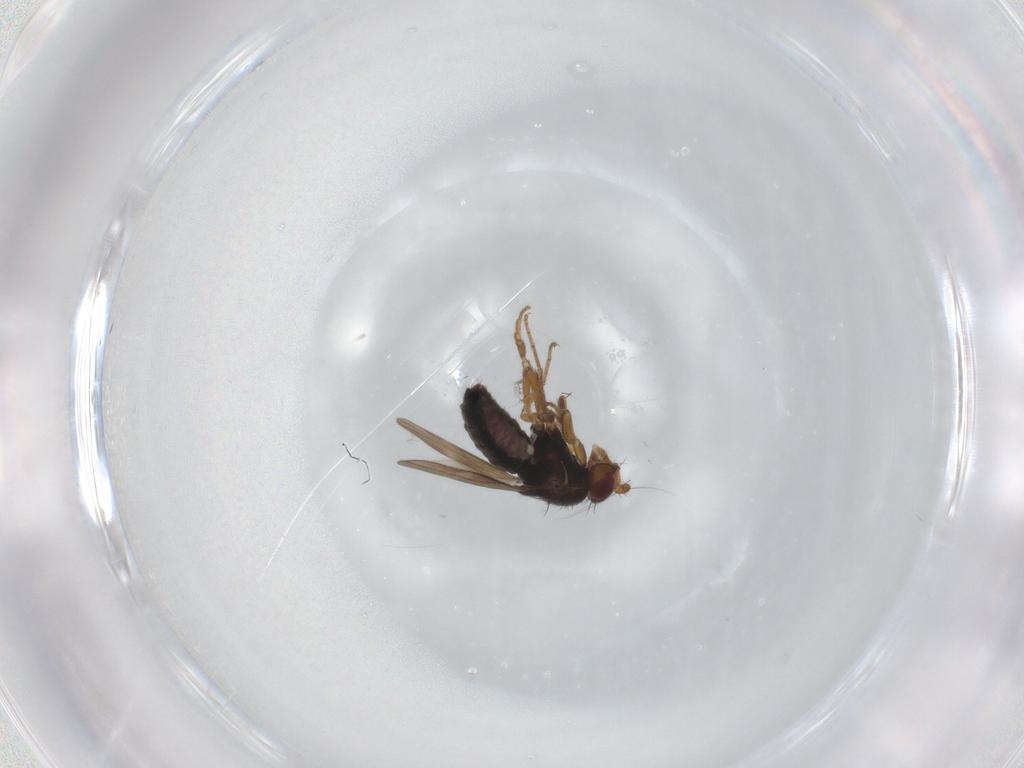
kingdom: Animalia
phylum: Arthropoda
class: Insecta
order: Diptera
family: Sphaeroceridae
